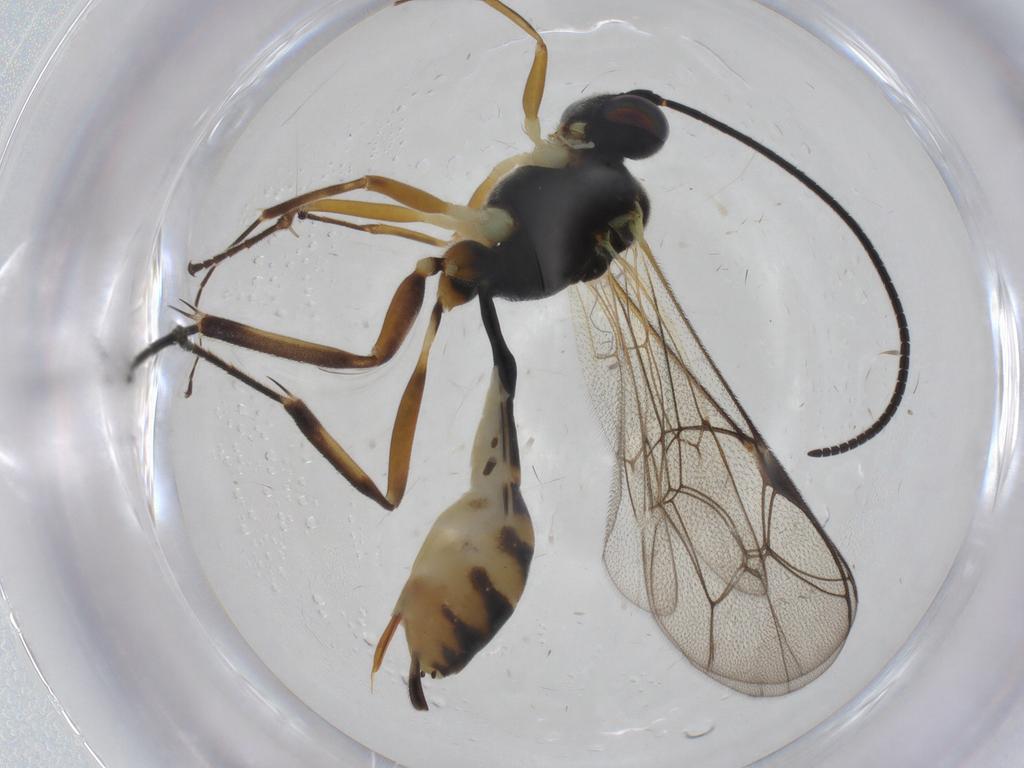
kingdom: Animalia
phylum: Arthropoda
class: Insecta
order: Hymenoptera
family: Ichneumonidae
